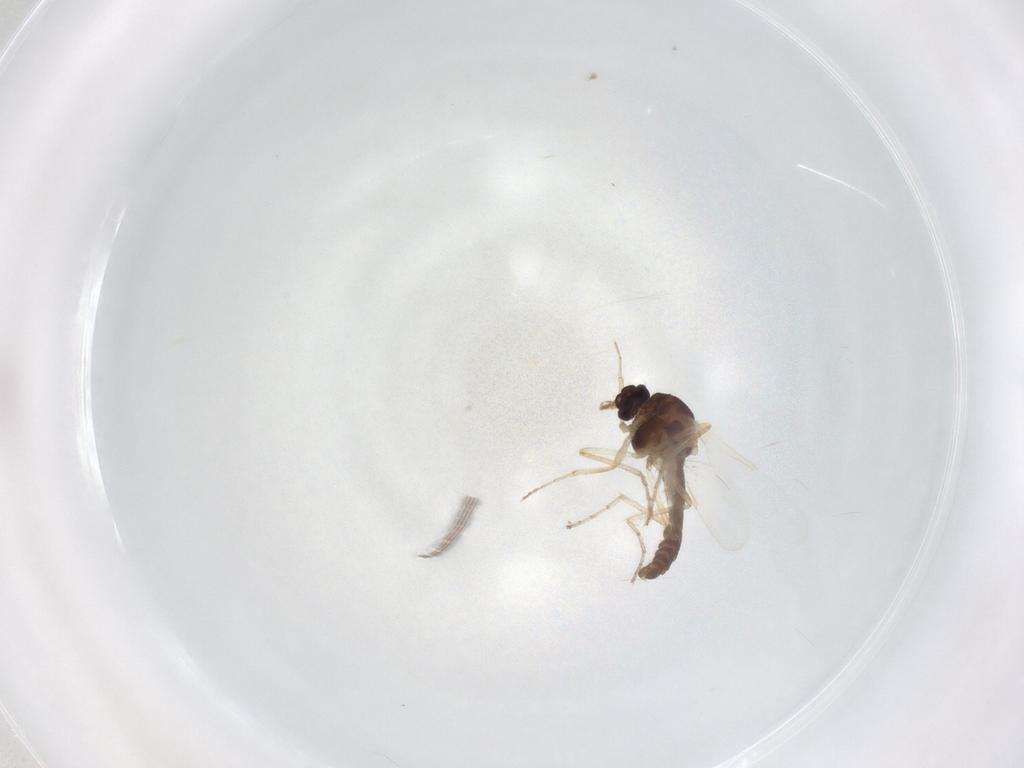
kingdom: Animalia
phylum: Arthropoda
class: Insecta
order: Diptera
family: Ceratopogonidae
